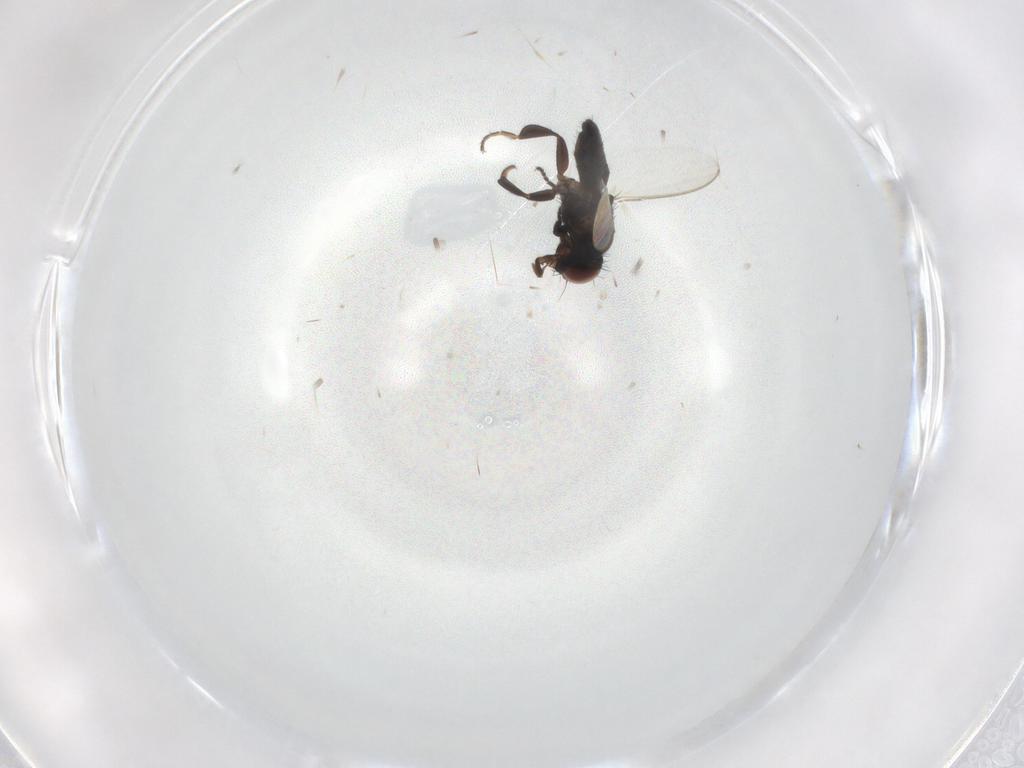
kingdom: Animalia
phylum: Arthropoda
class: Insecta
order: Diptera
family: Milichiidae
